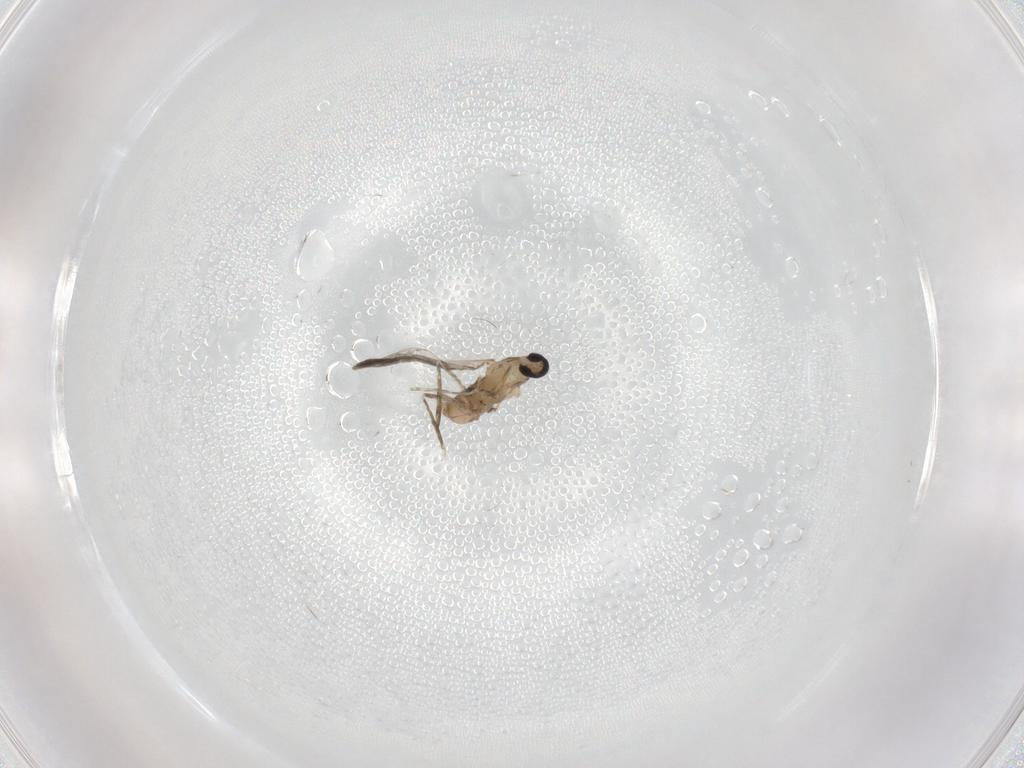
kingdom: Animalia
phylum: Arthropoda
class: Insecta
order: Diptera
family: Cecidomyiidae
